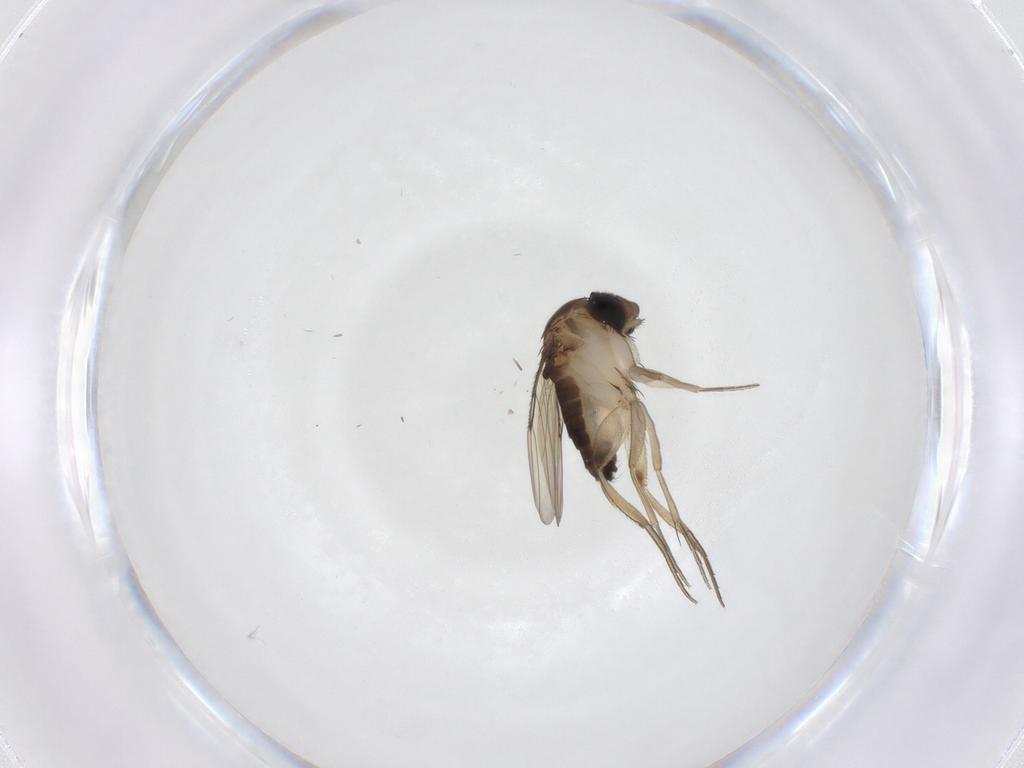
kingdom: Animalia
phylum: Arthropoda
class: Insecta
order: Diptera
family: Phoridae
